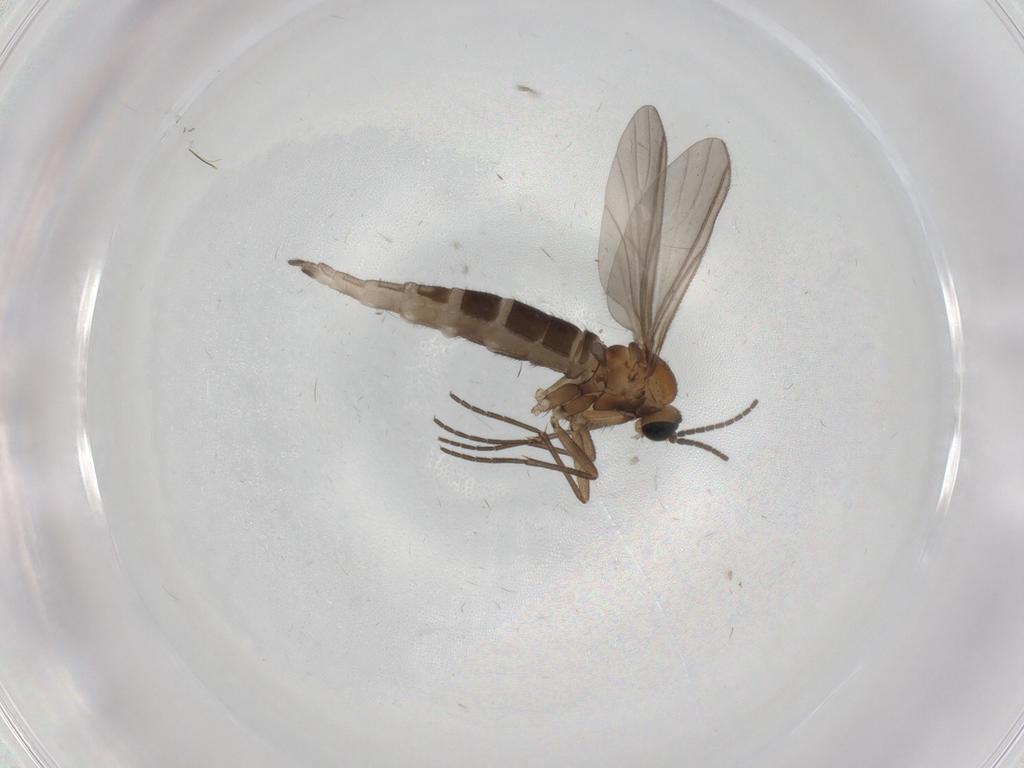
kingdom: Animalia
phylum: Arthropoda
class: Insecta
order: Diptera
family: Sciaridae
